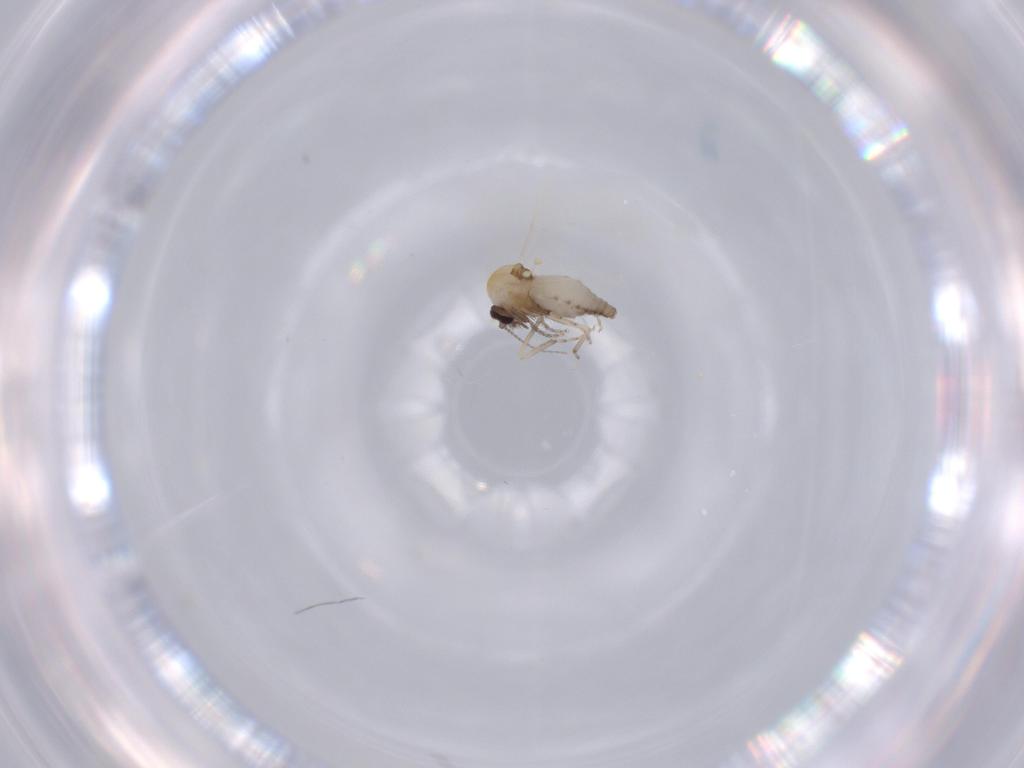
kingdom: Animalia
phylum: Arthropoda
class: Insecta
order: Diptera
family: Ceratopogonidae
